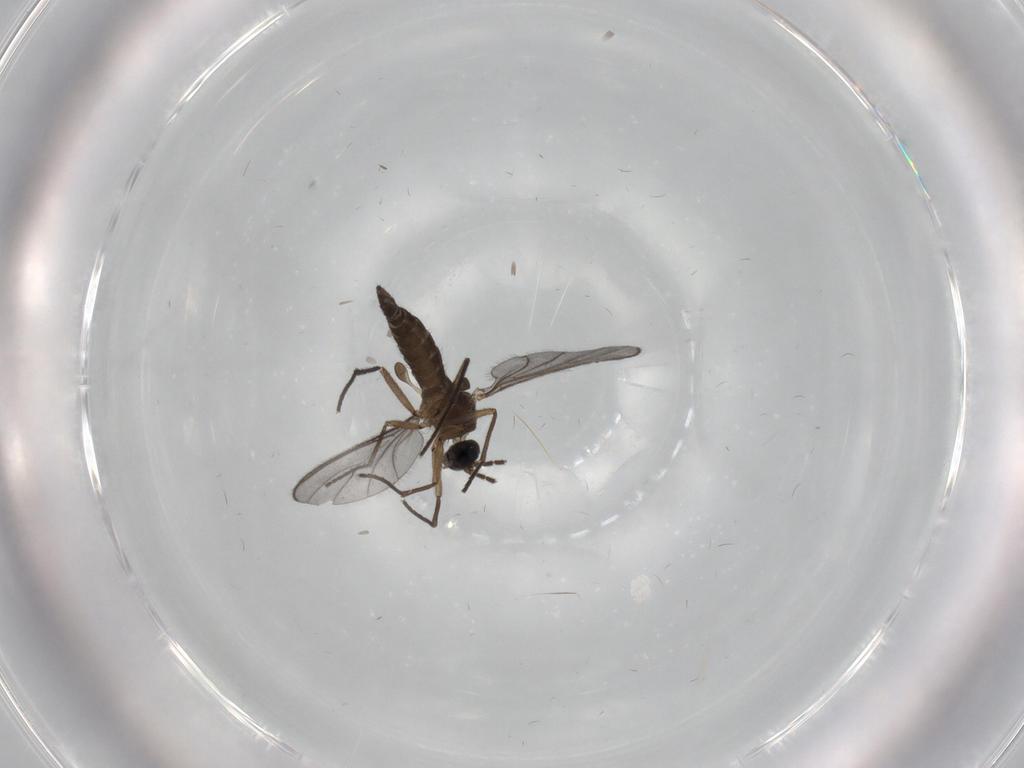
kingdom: Animalia
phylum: Arthropoda
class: Insecta
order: Diptera
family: Sciaridae
